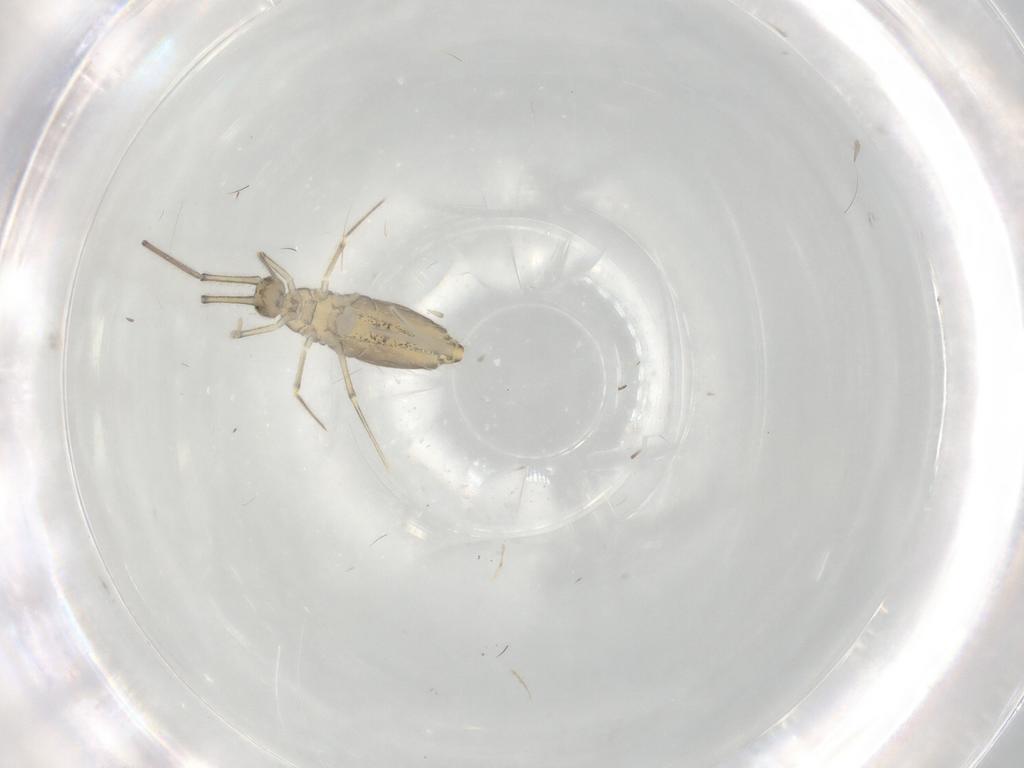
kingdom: Animalia
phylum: Arthropoda
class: Collembola
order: Entomobryomorpha
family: Paronellidae
